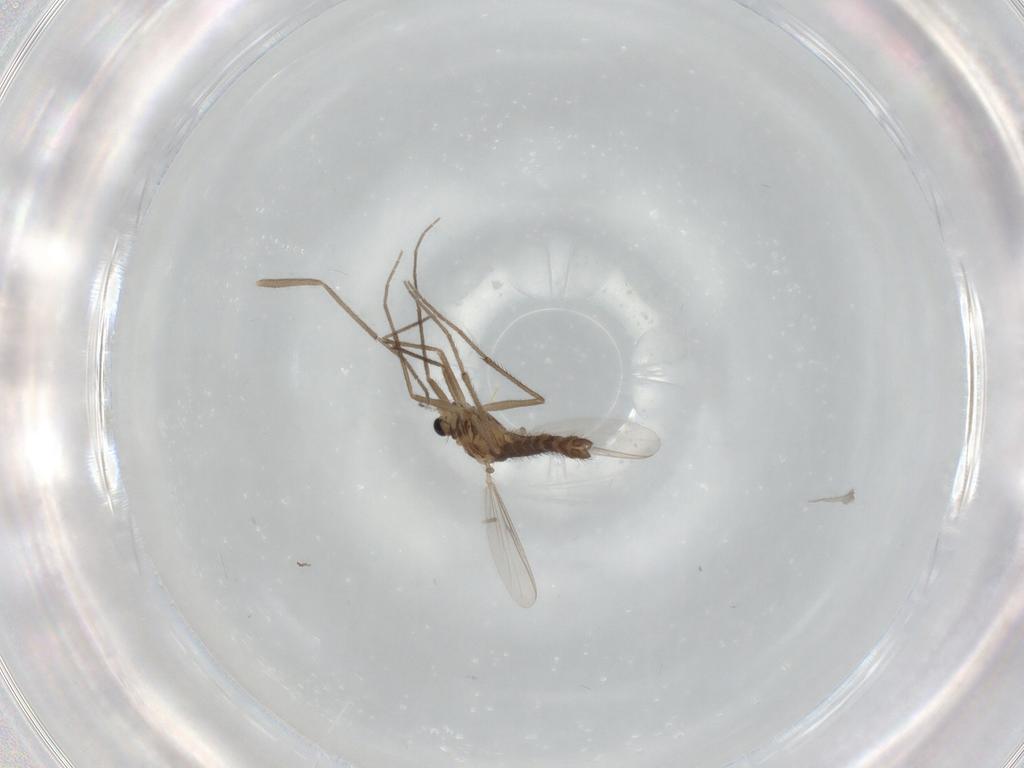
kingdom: Animalia
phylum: Arthropoda
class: Insecta
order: Diptera
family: Chironomidae
